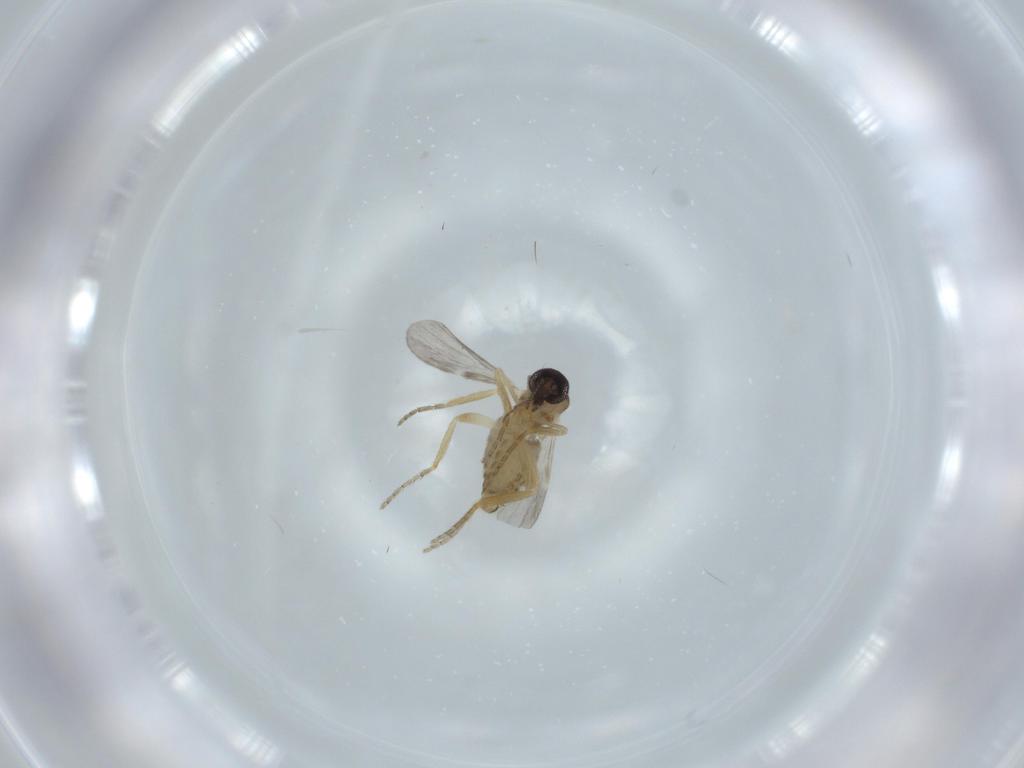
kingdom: Animalia
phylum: Arthropoda
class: Insecta
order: Diptera
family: Ceratopogonidae
